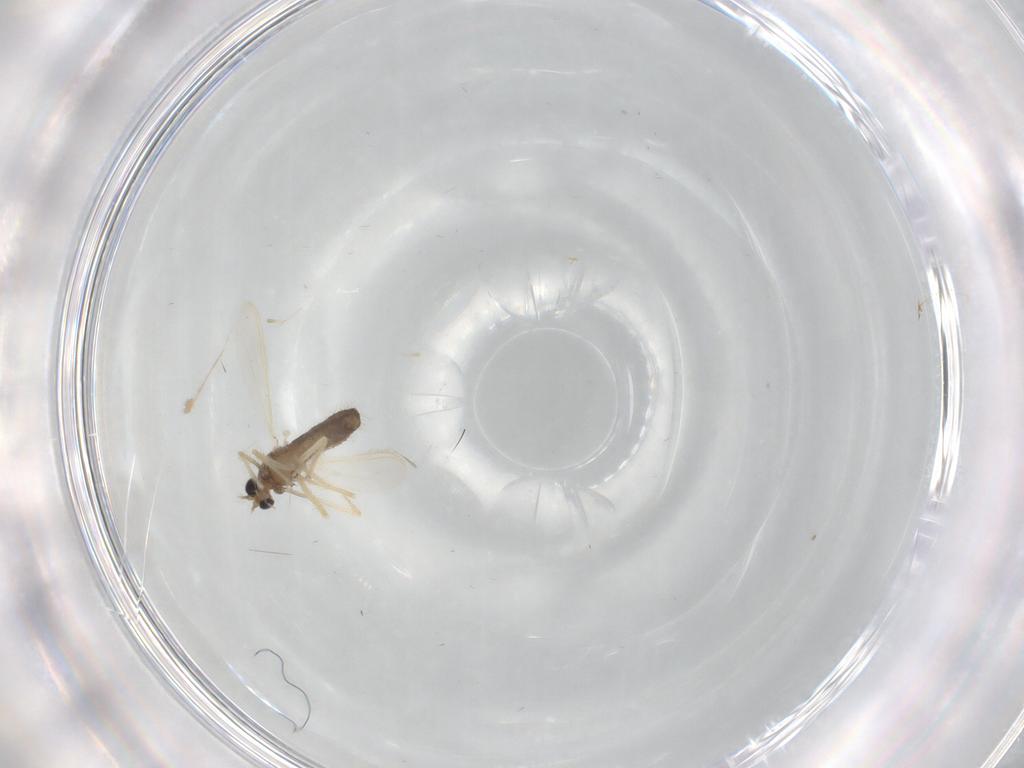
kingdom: Animalia
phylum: Arthropoda
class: Insecta
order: Diptera
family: Chironomidae
